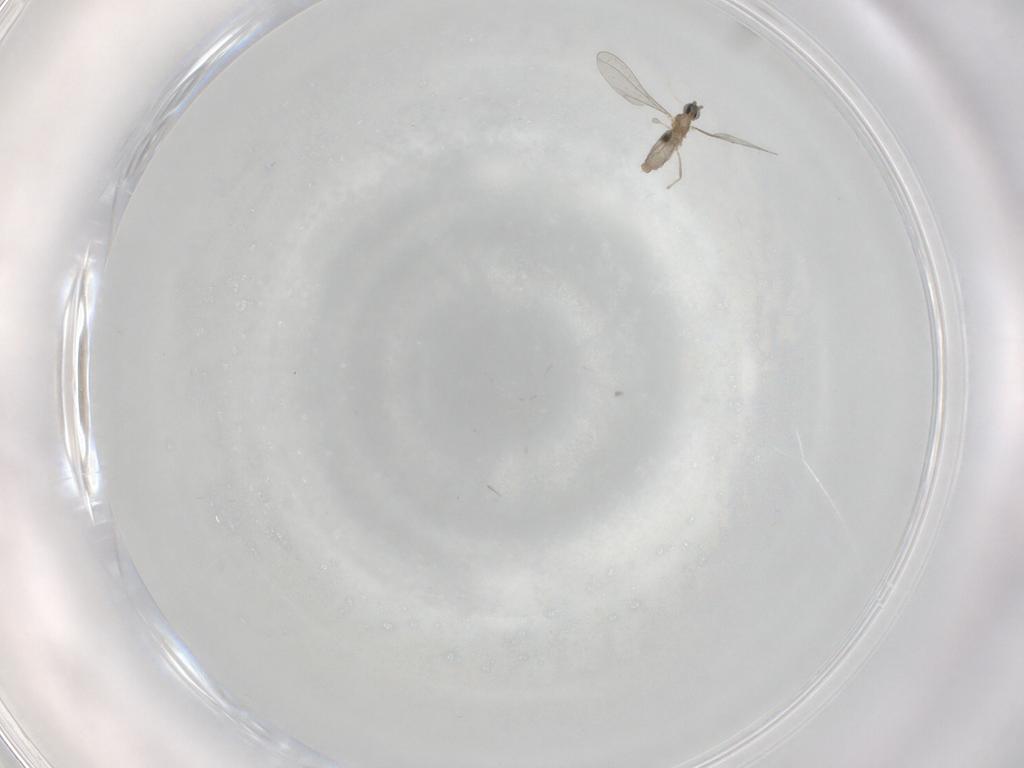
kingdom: Animalia
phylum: Arthropoda
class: Insecta
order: Diptera
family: Cecidomyiidae
